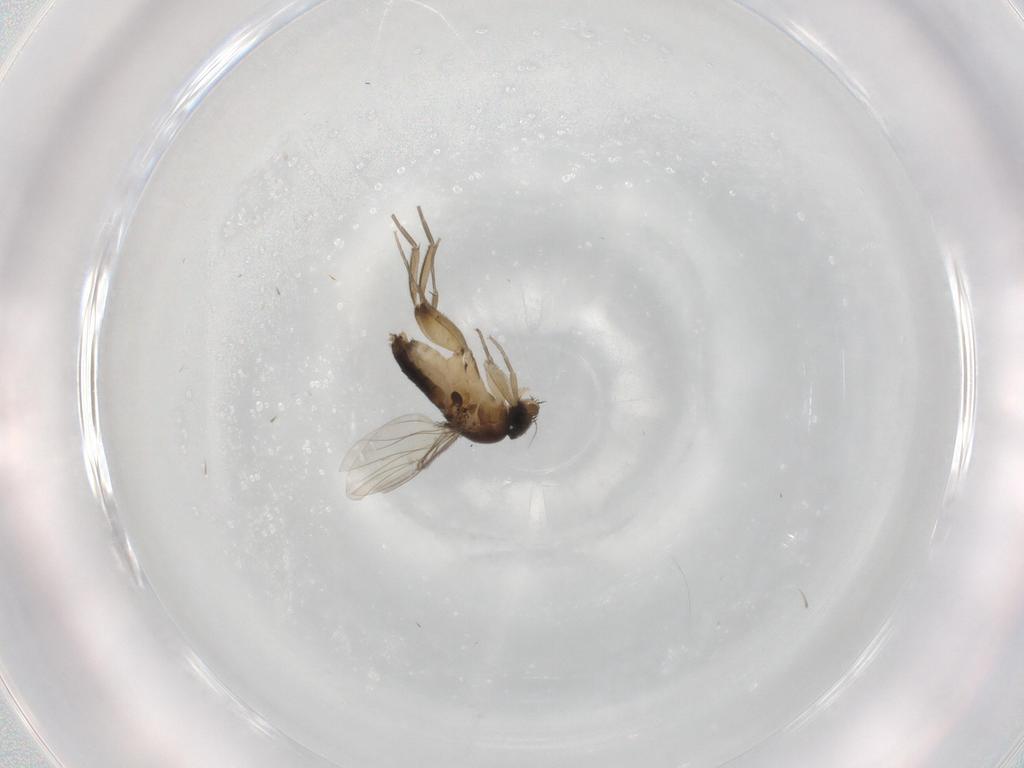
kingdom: Animalia
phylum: Arthropoda
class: Insecta
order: Diptera
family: Phoridae
